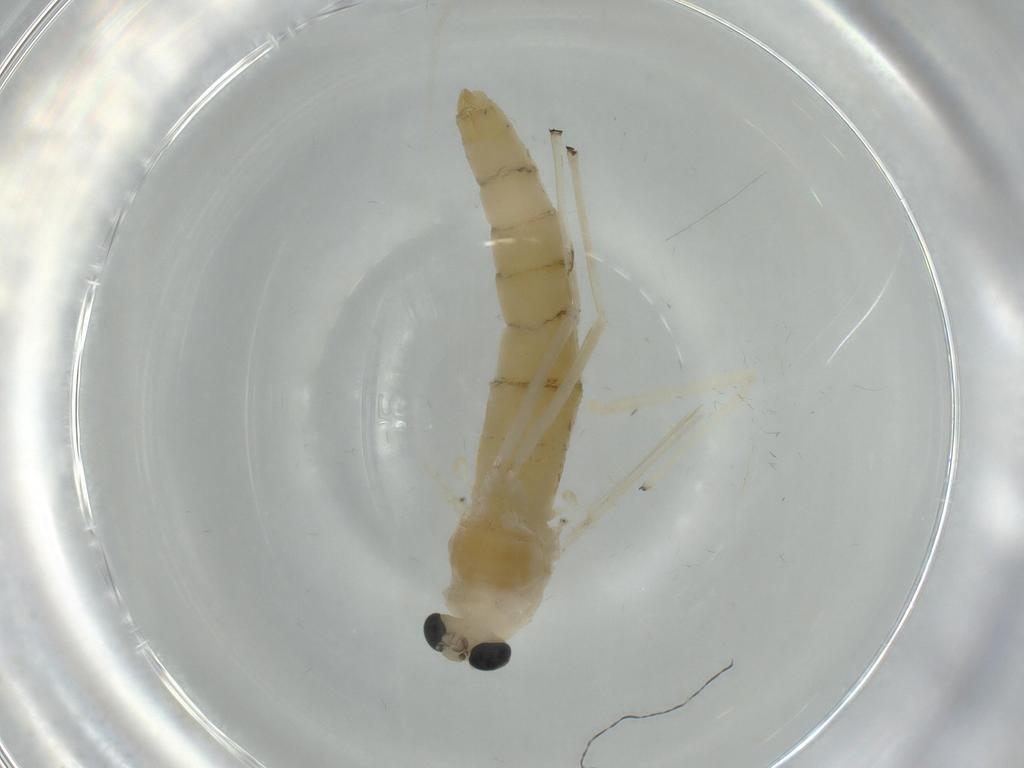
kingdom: Animalia
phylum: Arthropoda
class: Insecta
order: Diptera
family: Chironomidae
